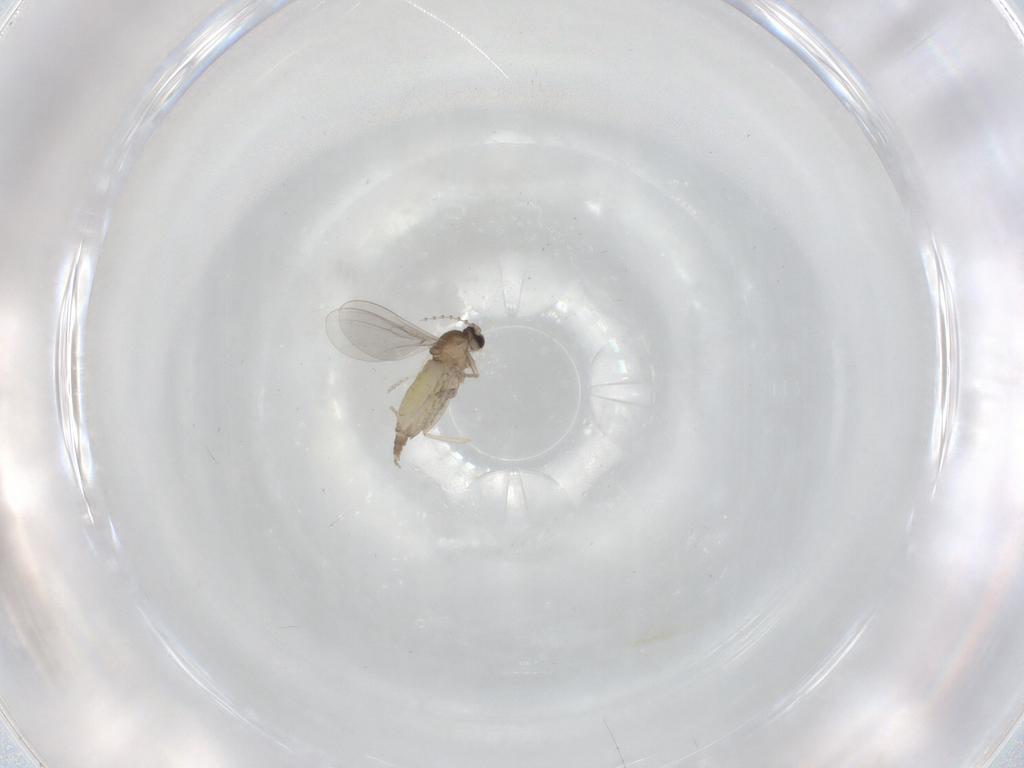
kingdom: Animalia
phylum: Arthropoda
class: Insecta
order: Diptera
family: Cecidomyiidae
